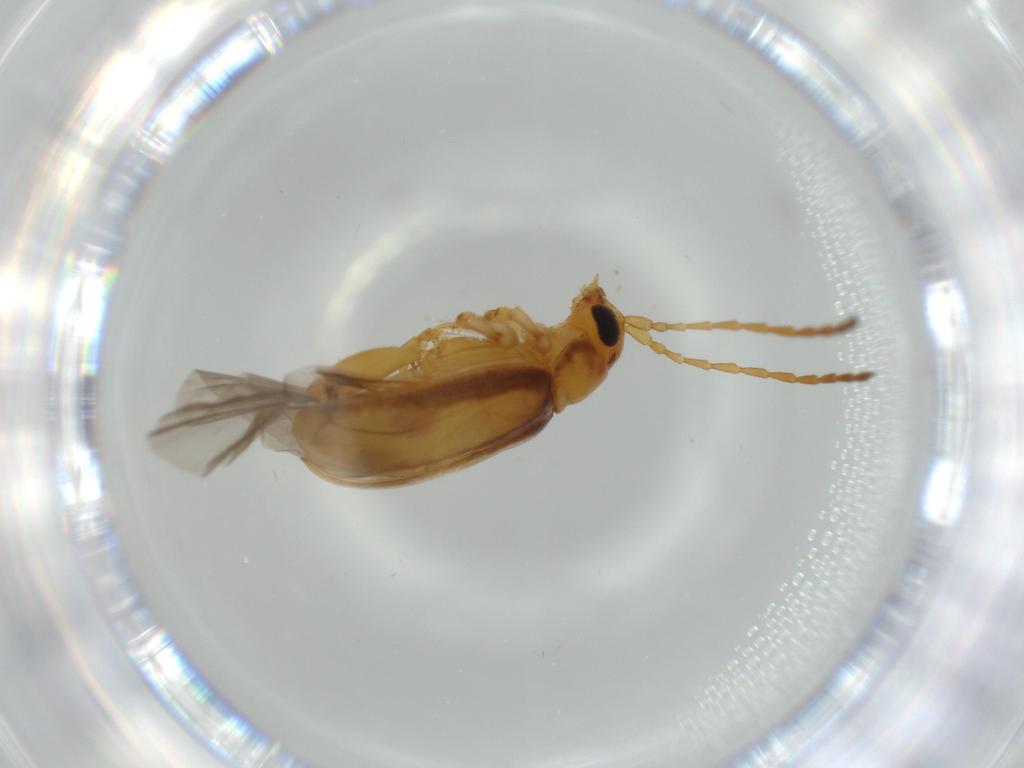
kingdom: Animalia
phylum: Arthropoda
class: Insecta
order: Coleoptera
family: Chrysomelidae
